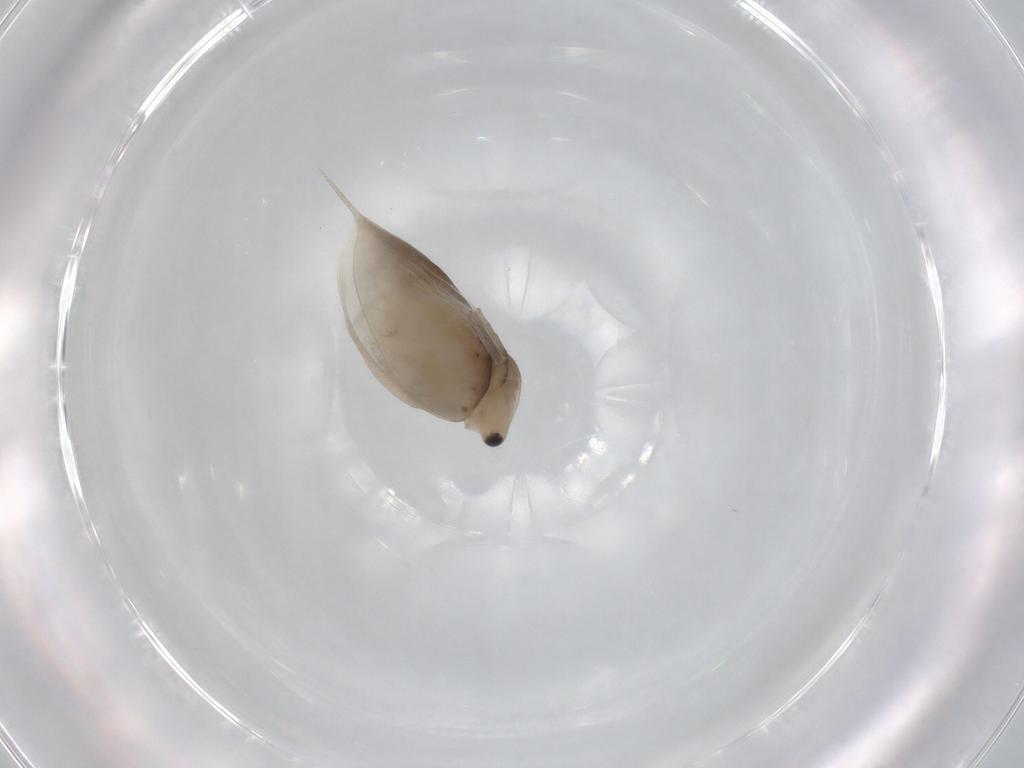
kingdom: Animalia
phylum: Arthropoda
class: Branchiopoda
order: Diplostraca
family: Daphniidae
